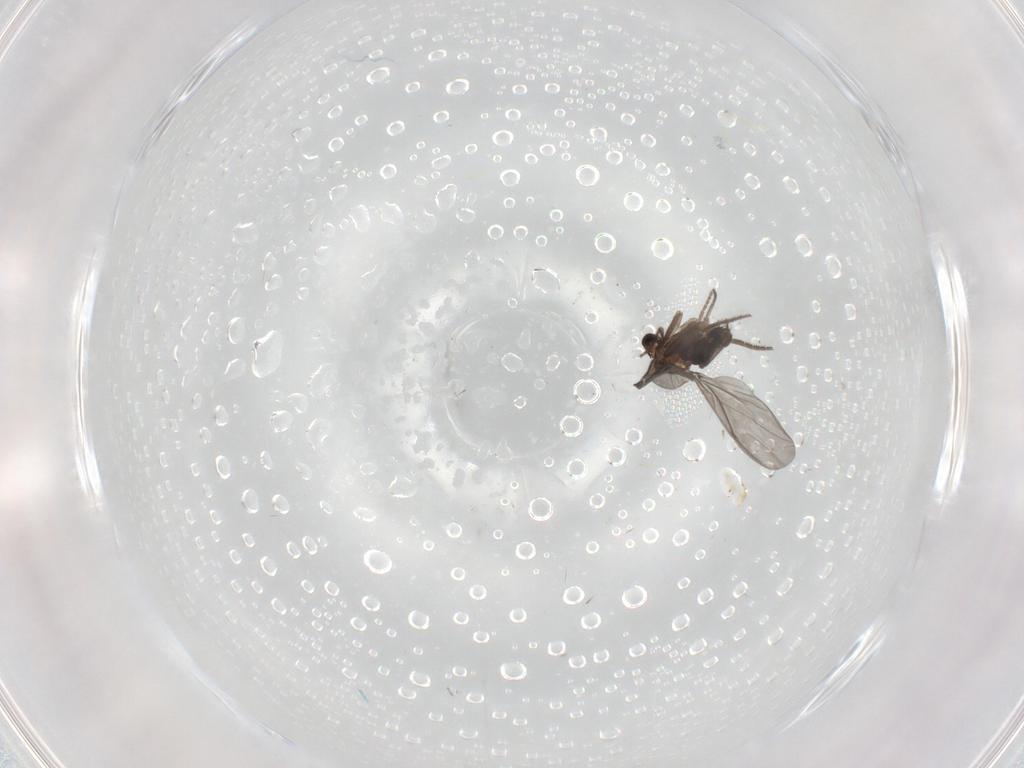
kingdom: Animalia
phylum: Arthropoda
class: Insecta
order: Diptera
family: Phoridae
